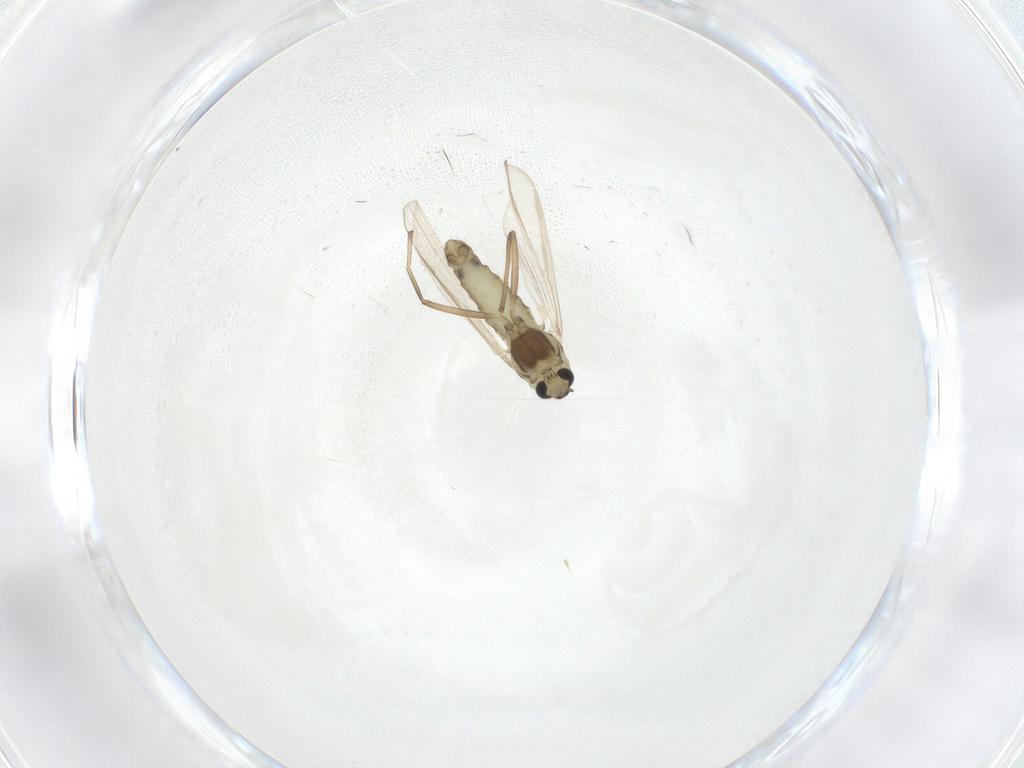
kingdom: Animalia
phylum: Arthropoda
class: Insecta
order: Diptera
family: Chironomidae
